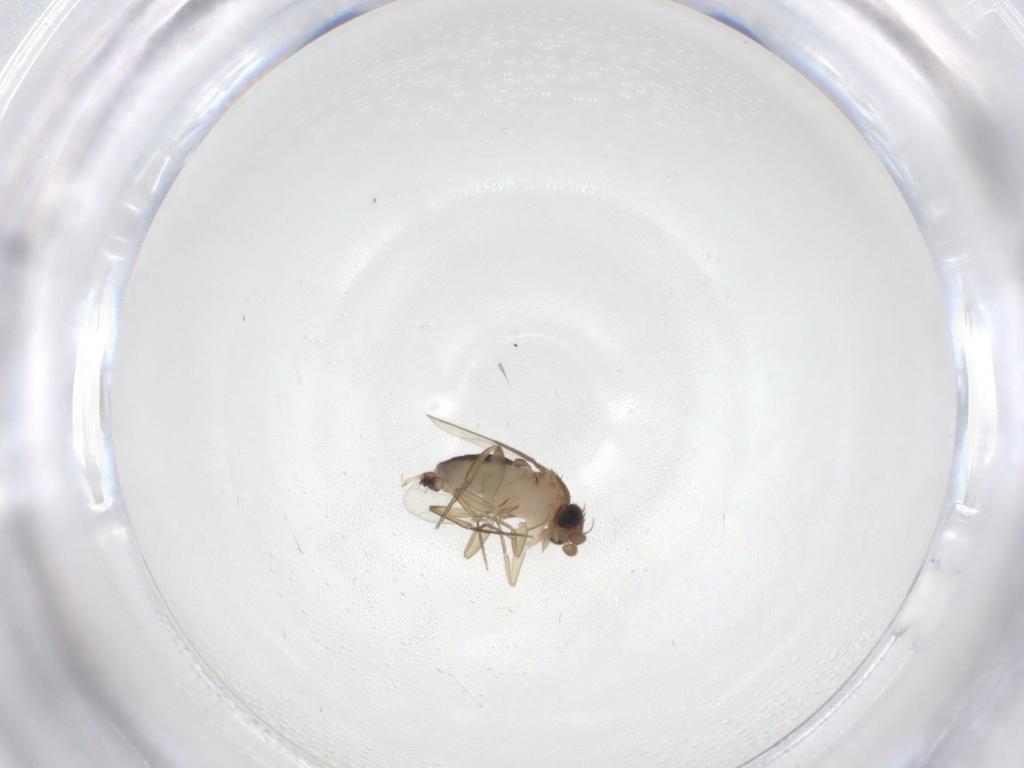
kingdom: Animalia
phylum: Arthropoda
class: Insecta
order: Diptera
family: Phoridae
